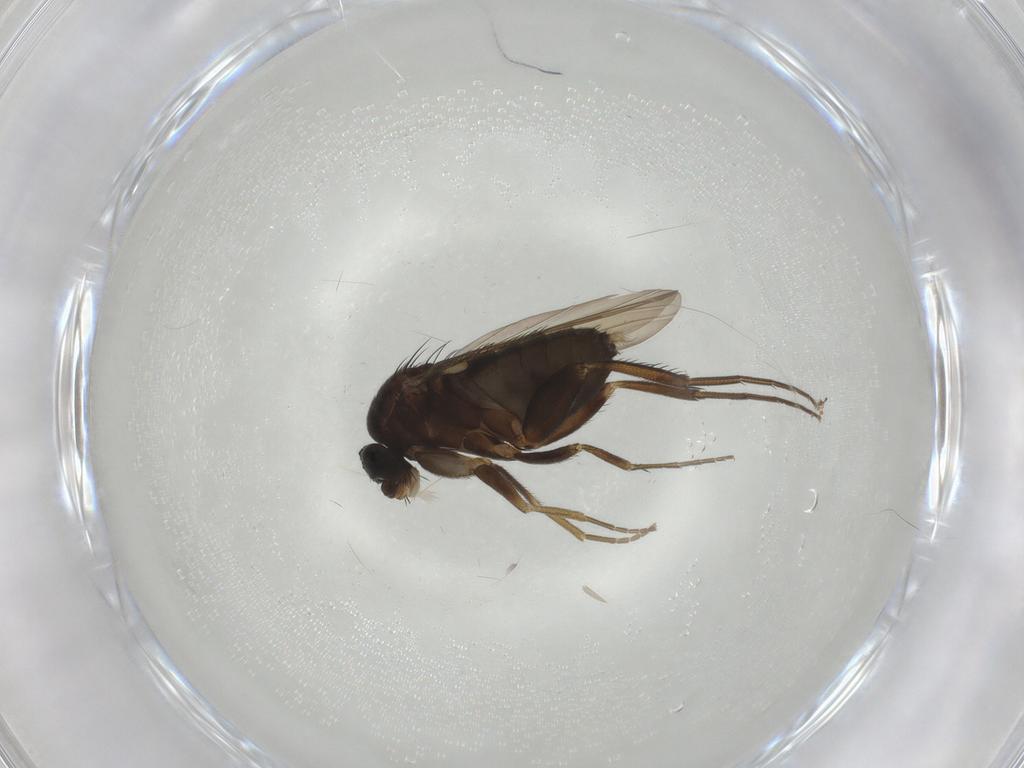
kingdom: Animalia
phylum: Arthropoda
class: Insecta
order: Diptera
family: Phoridae
